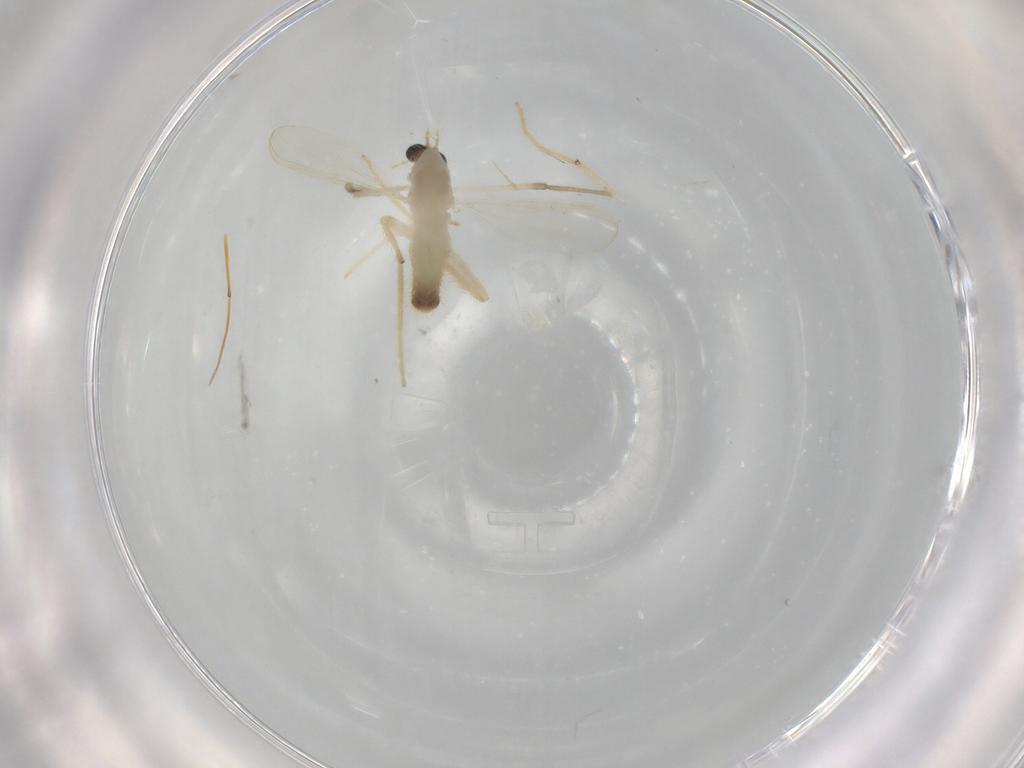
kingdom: Animalia
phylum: Arthropoda
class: Insecta
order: Diptera
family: Chironomidae
